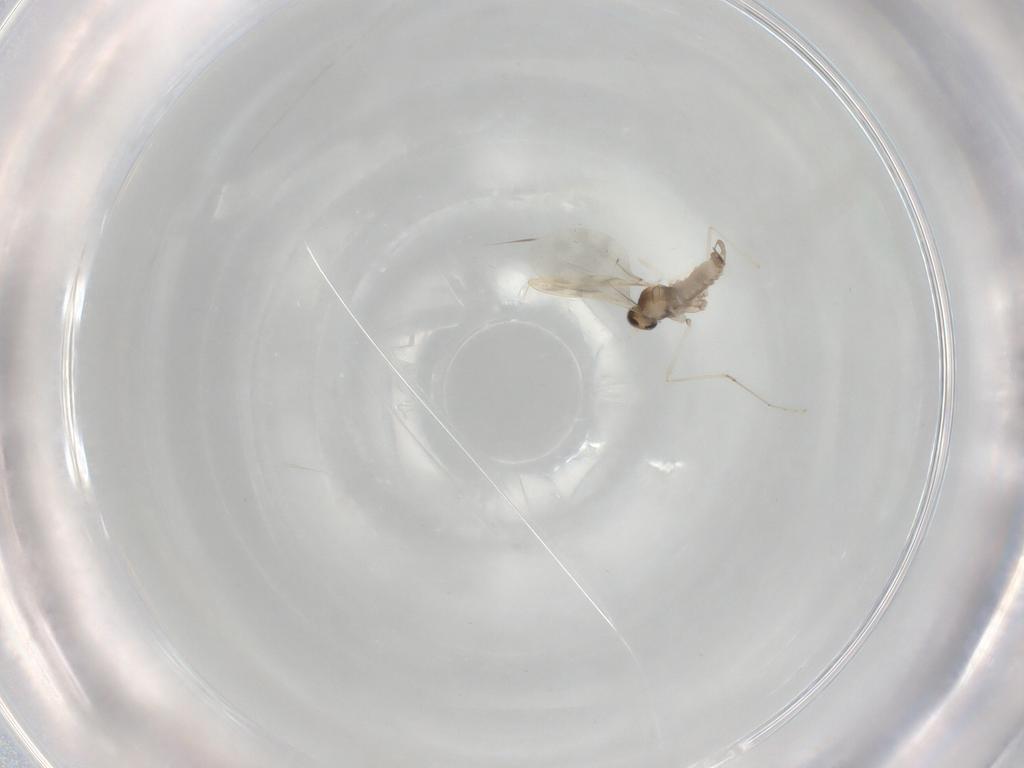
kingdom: Animalia
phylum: Arthropoda
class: Insecta
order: Diptera
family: Cecidomyiidae
